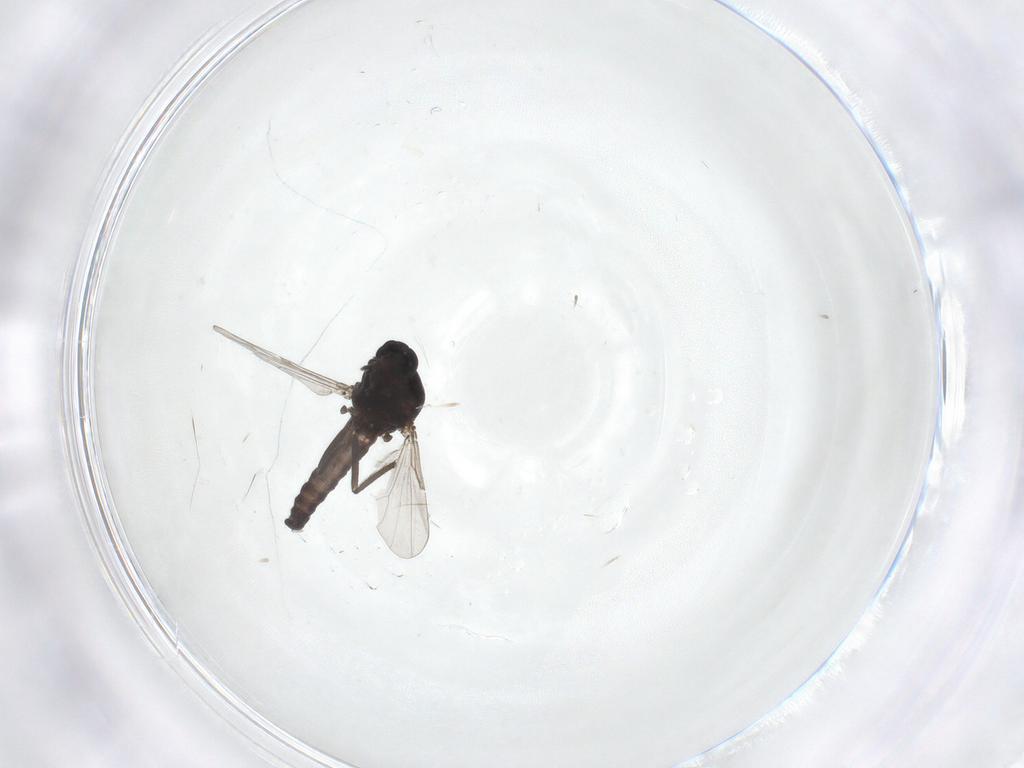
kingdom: Animalia
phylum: Arthropoda
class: Insecta
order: Diptera
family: Ceratopogonidae
